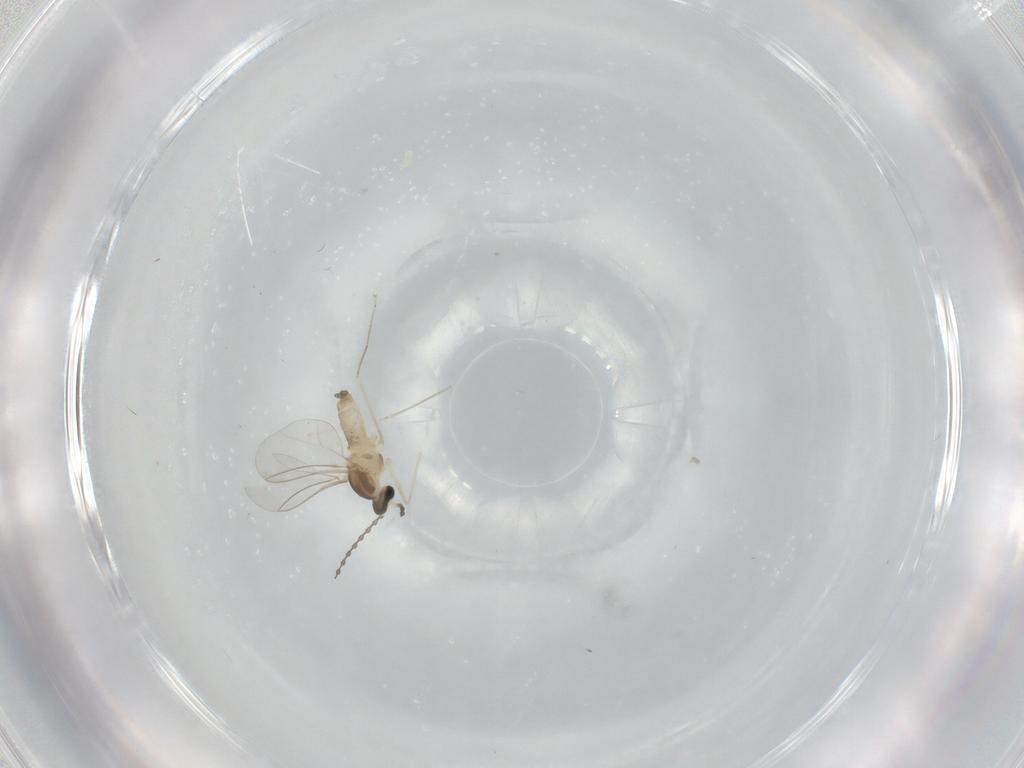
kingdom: Animalia
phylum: Arthropoda
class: Insecta
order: Diptera
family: Cecidomyiidae
